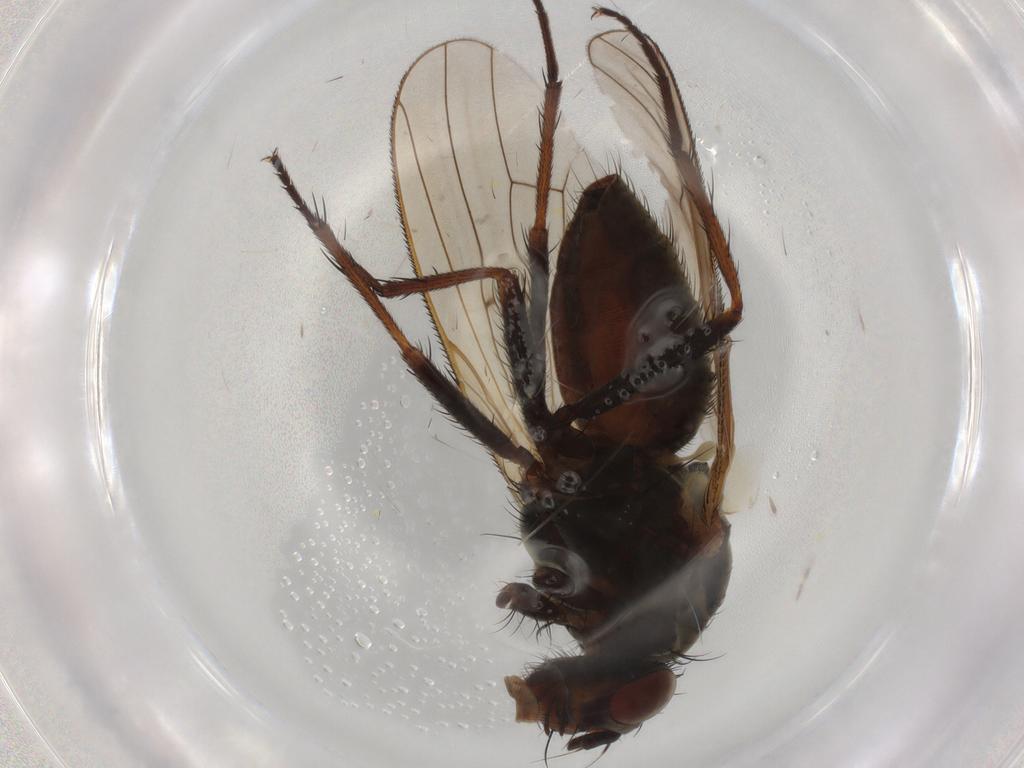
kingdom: Animalia
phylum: Arthropoda
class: Insecta
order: Diptera
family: Anthomyiidae
